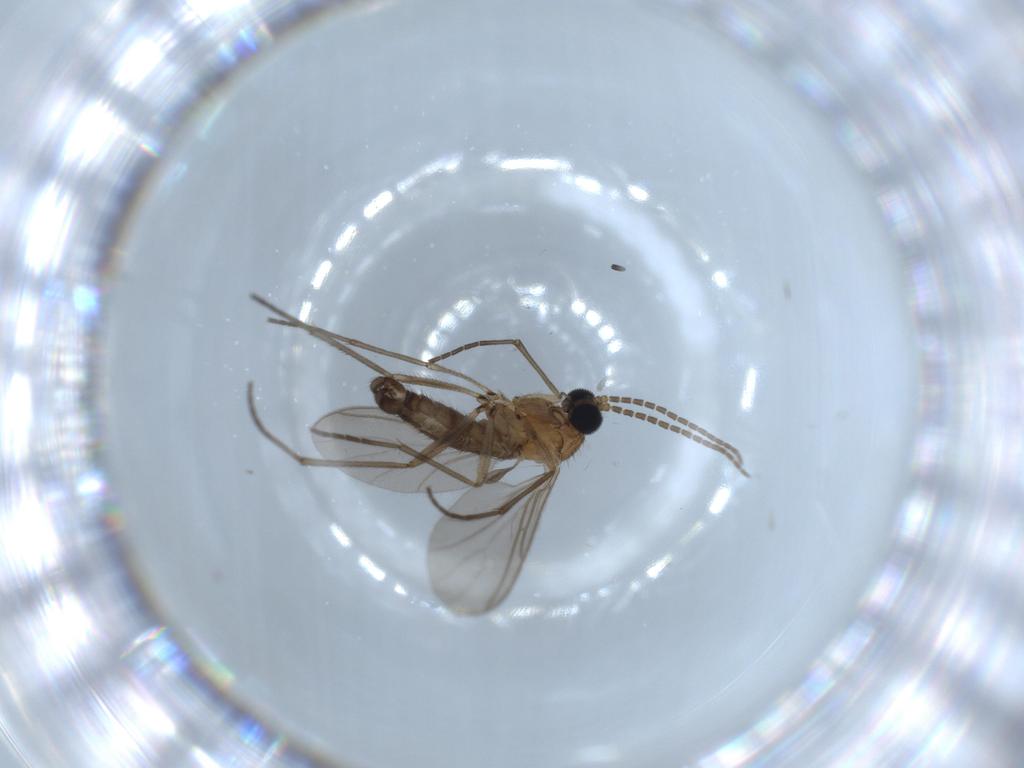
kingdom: Animalia
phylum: Arthropoda
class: Insecta
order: Diptera
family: Sciaridae
